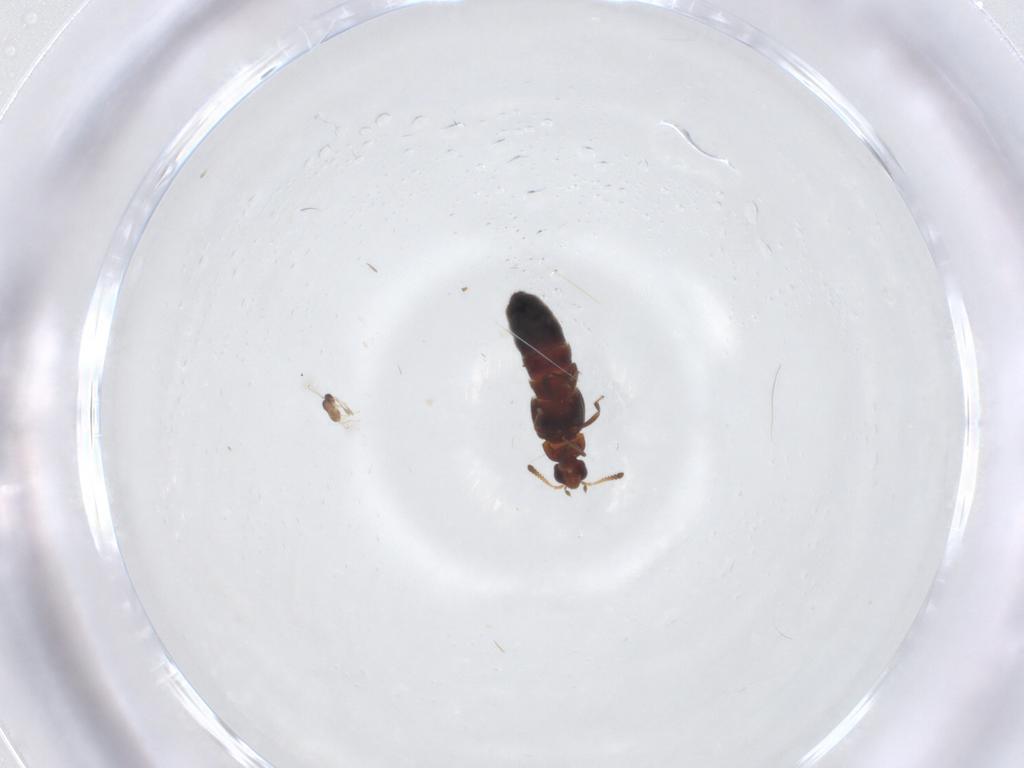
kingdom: Animalia
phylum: Arthropoda
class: Insecta
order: Coleoptera
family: Staphylinidae
